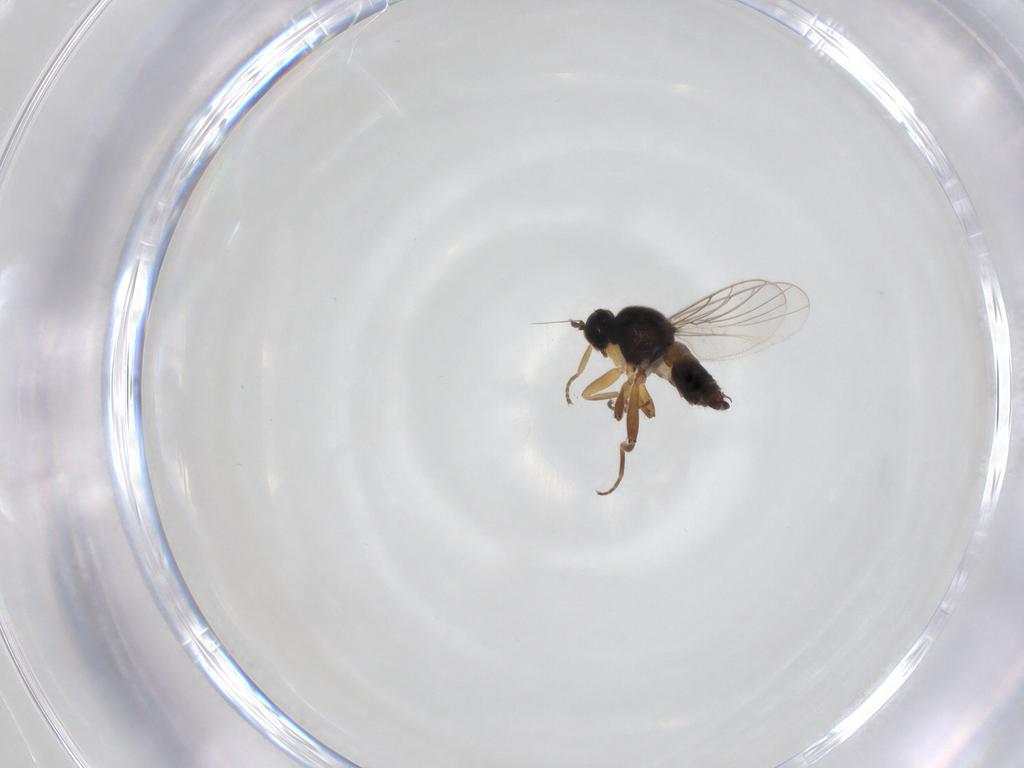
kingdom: Animalia
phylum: Arthropoda
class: Insecta
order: Diptera
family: Hybotidae
